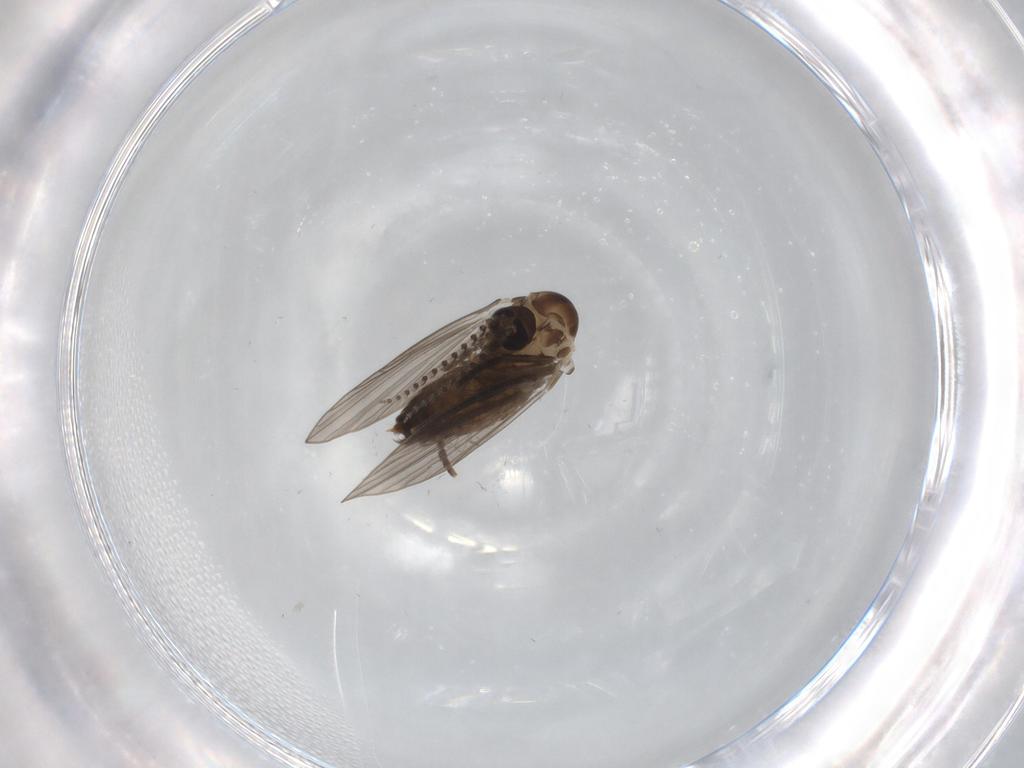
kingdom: Animalia
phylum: Arthropoda
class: Insecta
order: Diptera
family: Psychodidae
